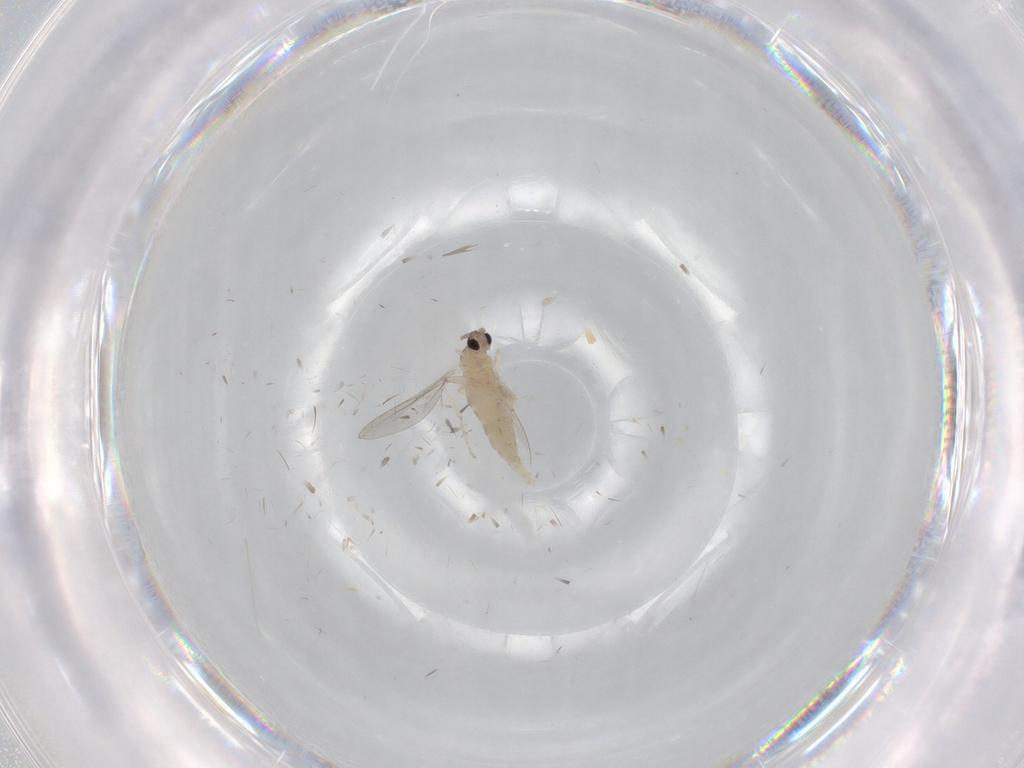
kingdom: Animalia
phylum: Arthropoda
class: Insecta
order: Diptera
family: Cecidomyiidae
